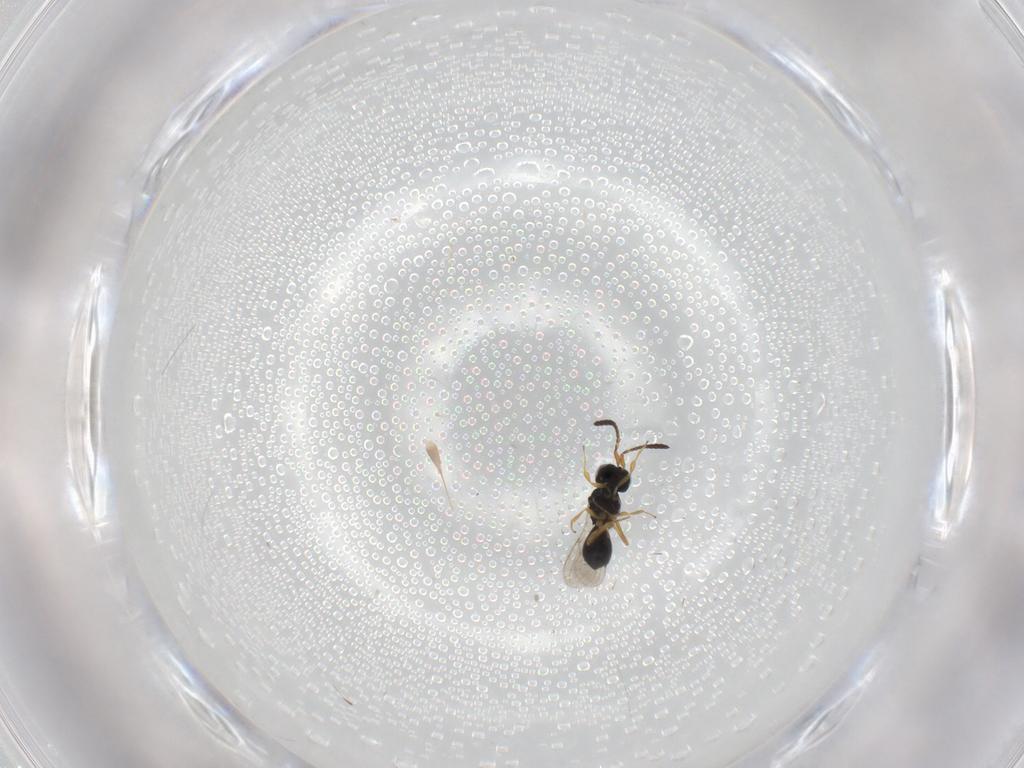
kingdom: Animalia
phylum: Arthropoda
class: Insecta
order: Hymenoptera
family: Scelionidae
